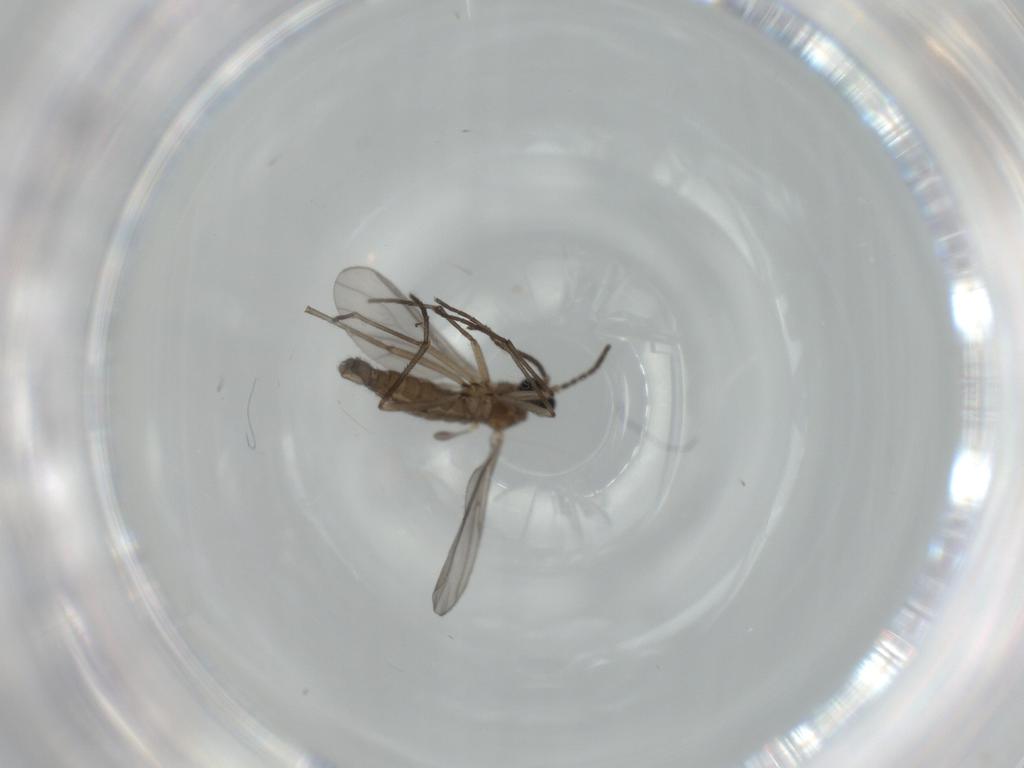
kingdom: Animalia
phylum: Arthropoda
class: Insecta
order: Diptera
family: Sciaridae
